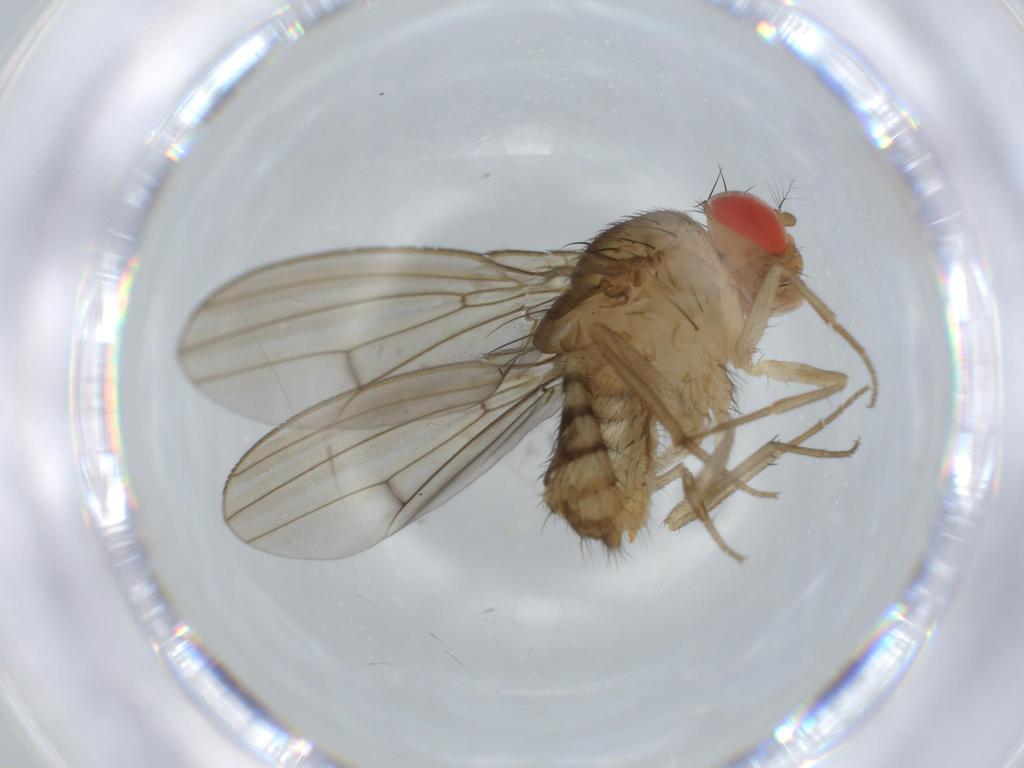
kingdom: Animalia
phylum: Arthropoda
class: Insecta
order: Diptera
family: Drosophilidae
